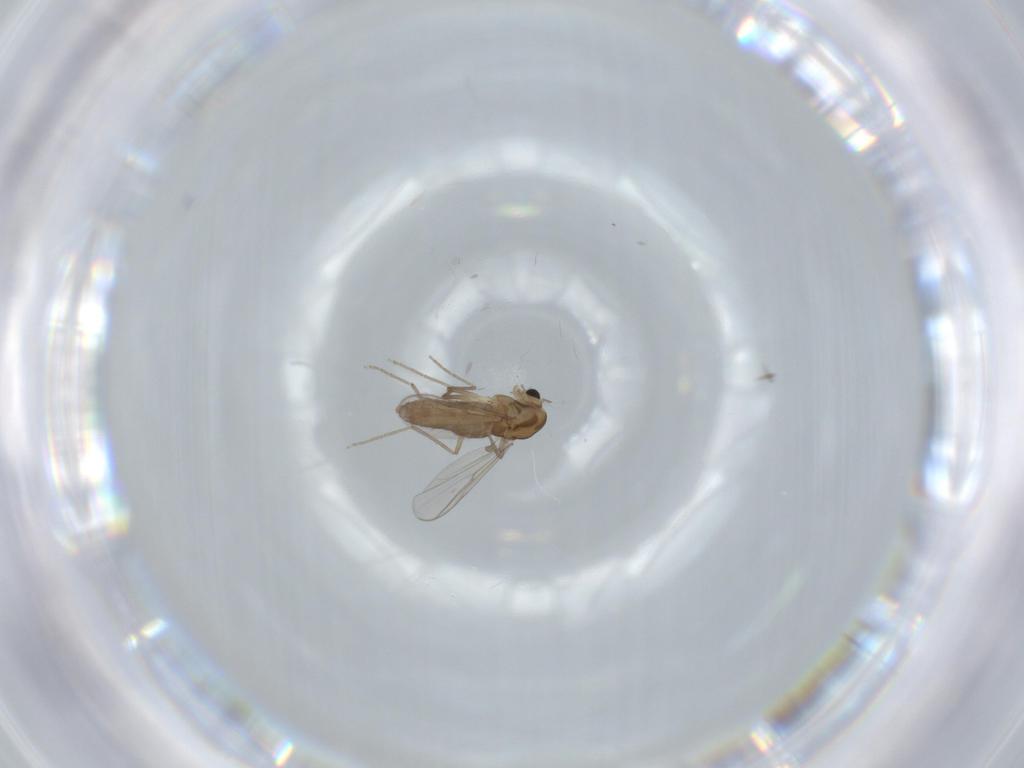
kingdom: Animalia
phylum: Arthropoda
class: Insecta
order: Diptera
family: Chironomidae
